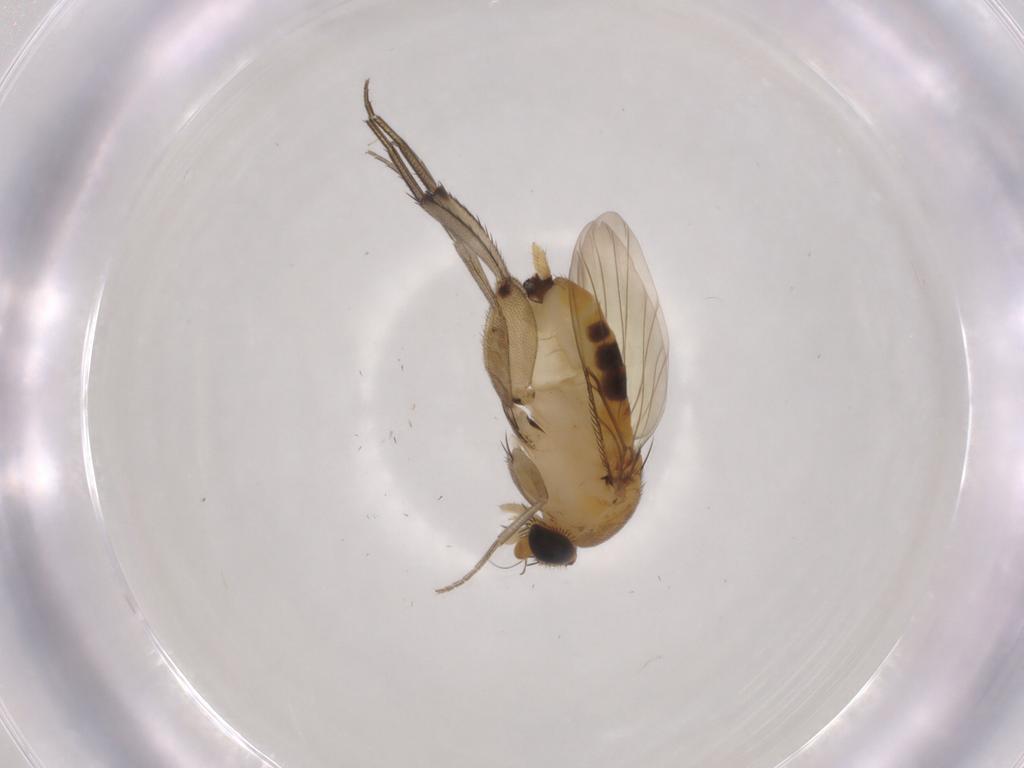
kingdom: Animalia
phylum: Arthropoda
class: Insecta
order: Diptera
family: Phoridae
